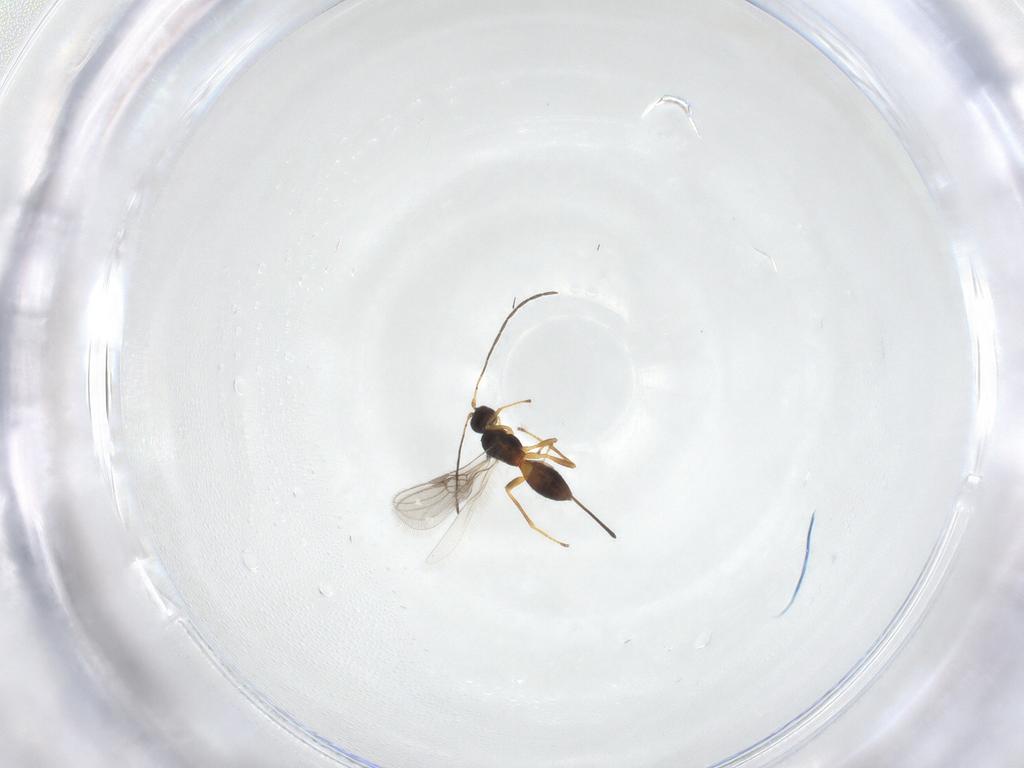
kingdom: Animalia
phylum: Arthropoda
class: Insecta
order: Hymenoptera
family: Braconidae
